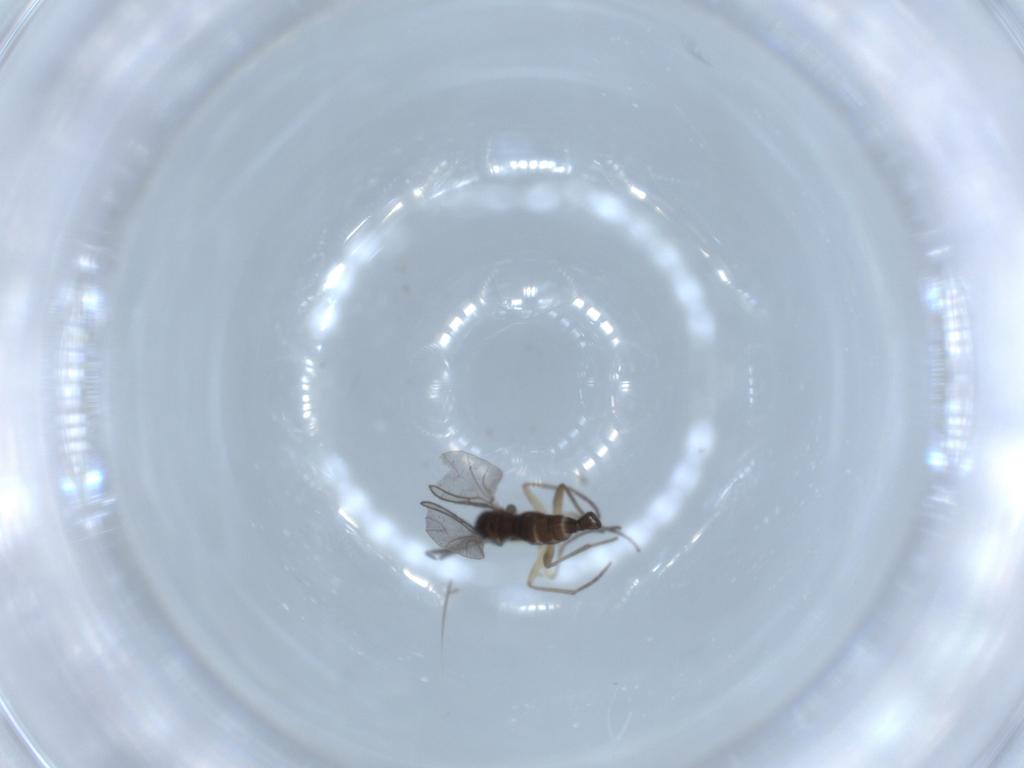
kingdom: Animalia
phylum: Arthropoda
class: Insecta
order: Diptera
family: Sciaridae
